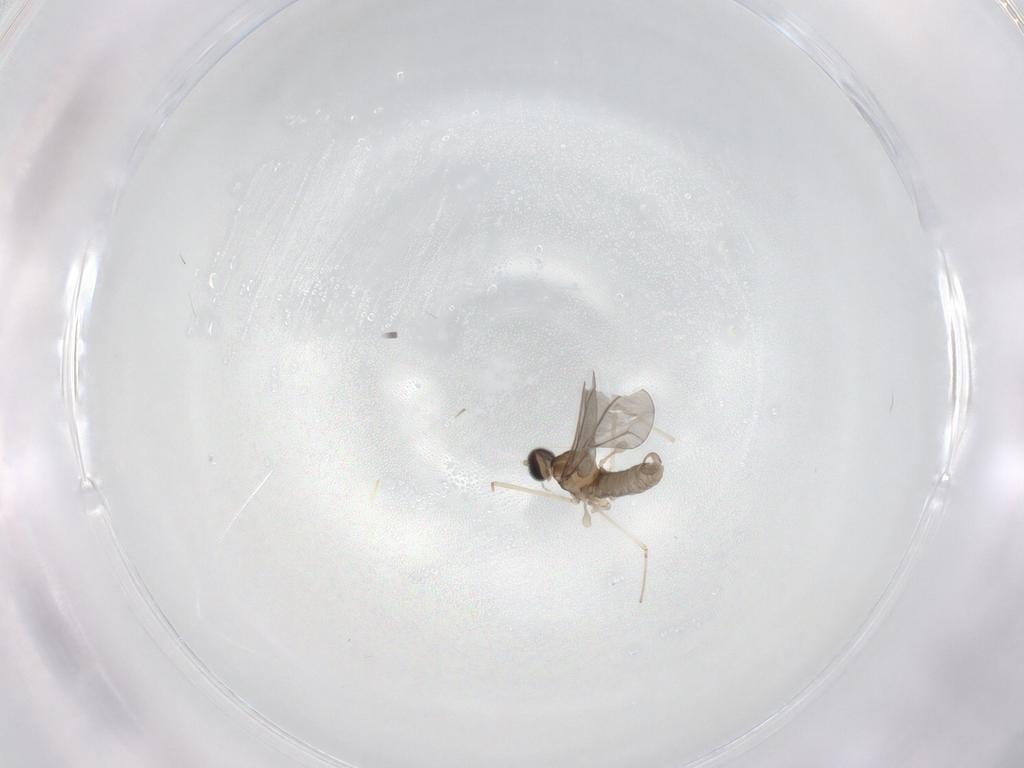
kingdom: Animalia
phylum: Arthropoda
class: Insecta
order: Diptera
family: Cecidomyiidae
